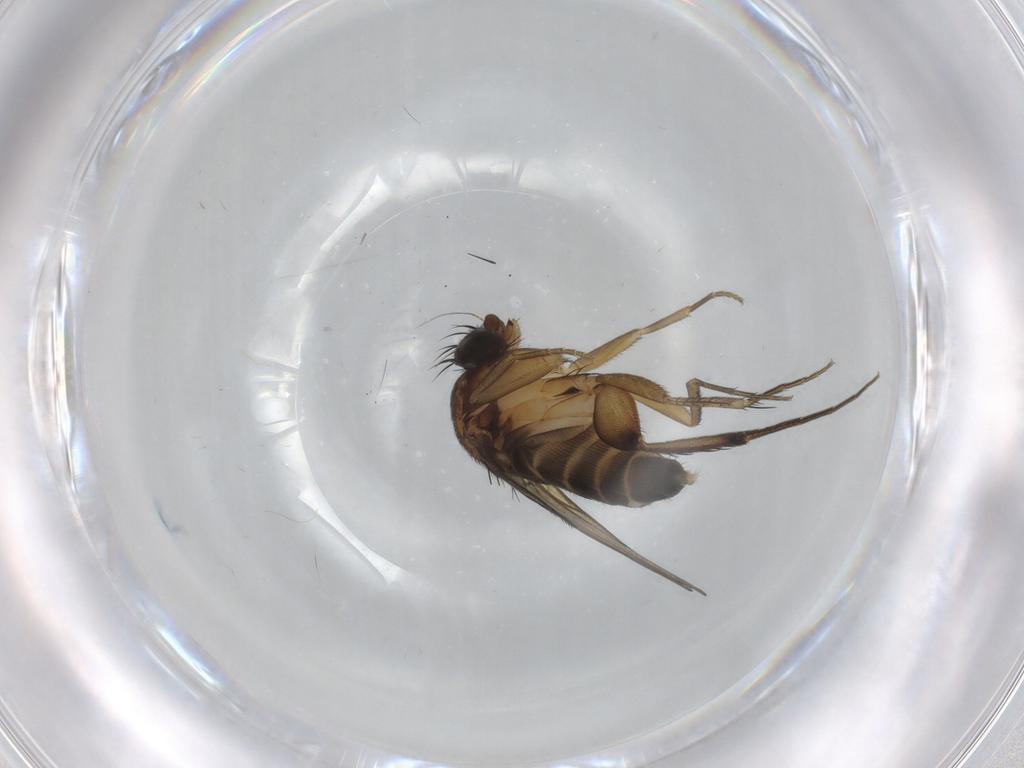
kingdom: Animalia
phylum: Arthropoda
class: Insecta
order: Diptera
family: Phoridae
